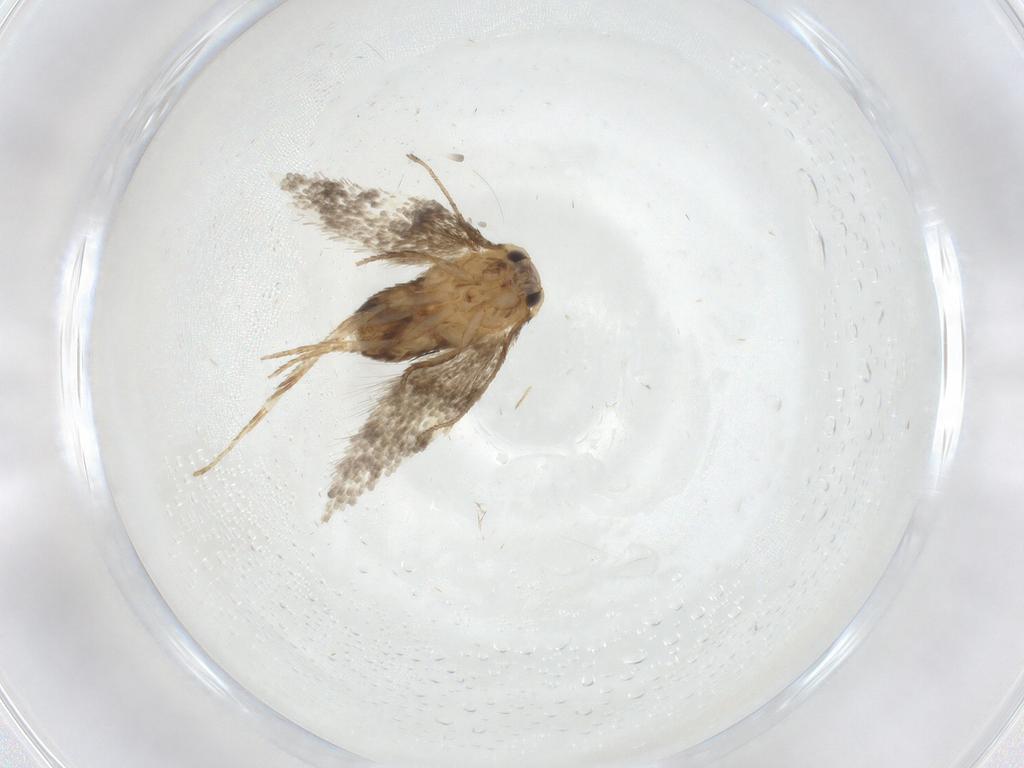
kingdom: Animalia
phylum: Arthropoda
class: Insecta
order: Lepidoptera
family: Nepticulidae
